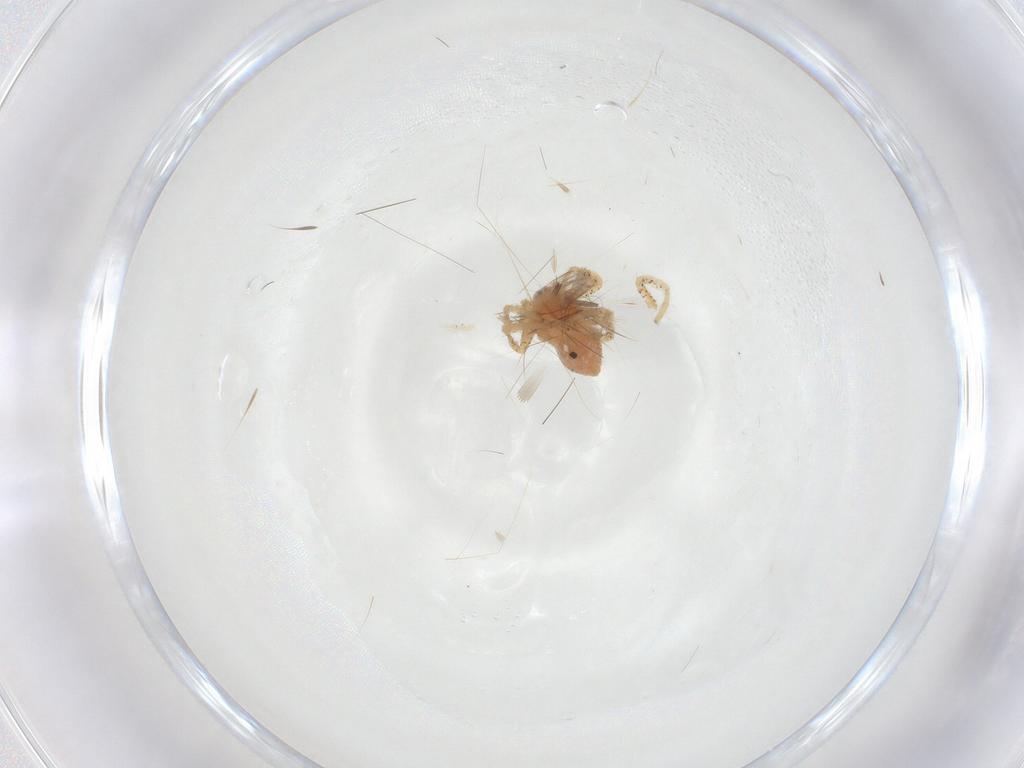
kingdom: Animalia
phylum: Arthropoda
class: Arachnida
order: Araneae
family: Philodromidae
